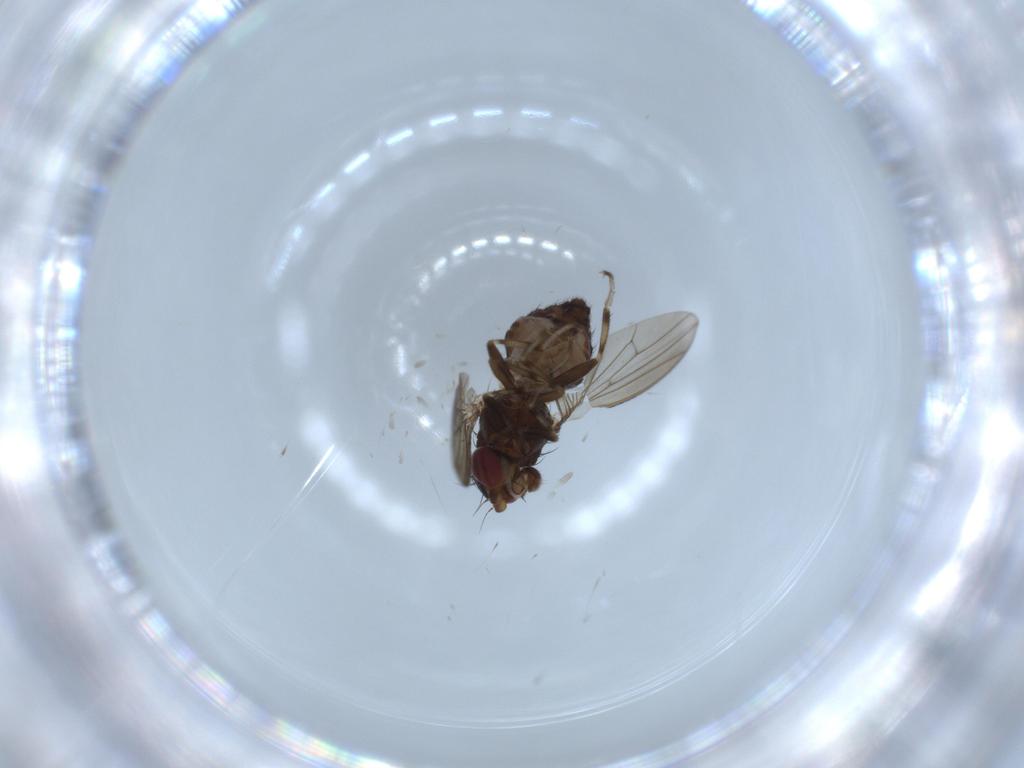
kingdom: Animalia
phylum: Arthropoda
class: Insecta
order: Diptera
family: Heleomyzidae
